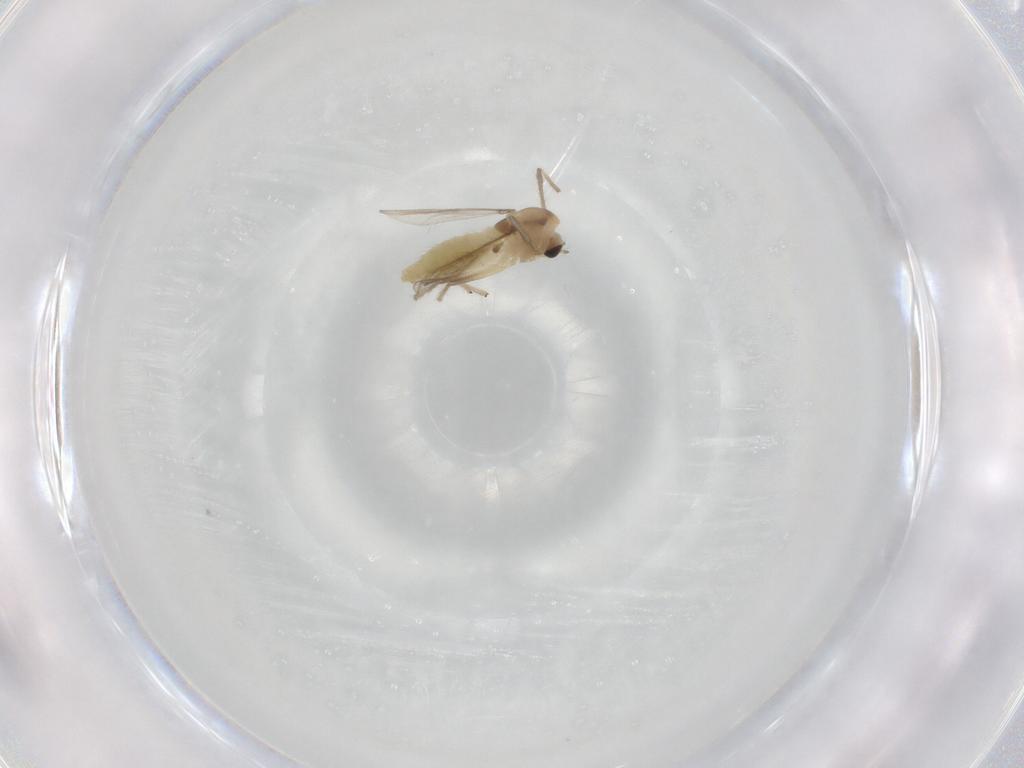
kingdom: Animalia
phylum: Arthropoda
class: Insecta
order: Diptera
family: Chironomidae
